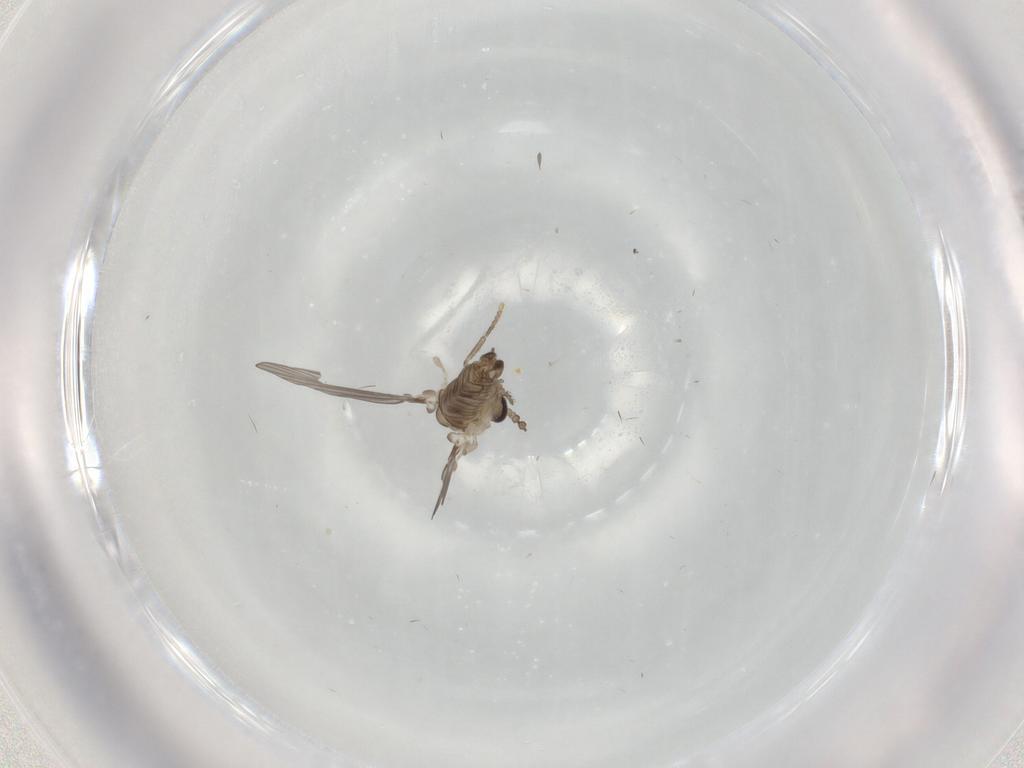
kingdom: Animalia
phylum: Arthropoda
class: Insecta
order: Diptera
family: Psychodidae
